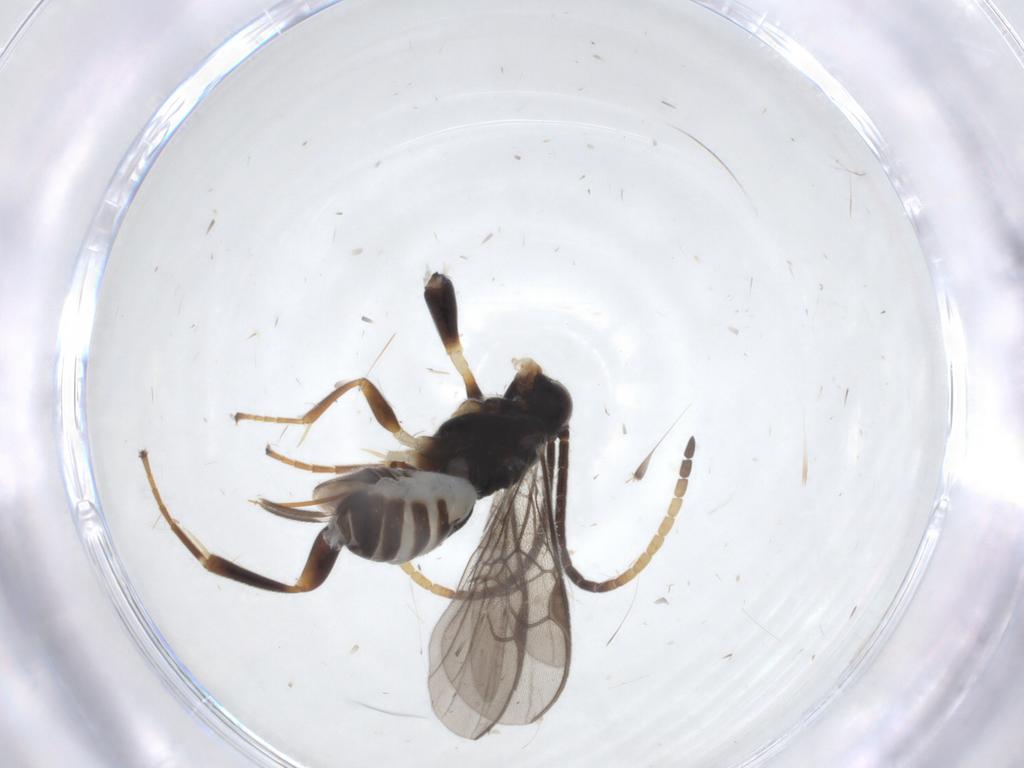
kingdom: Animalia
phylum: Arthropoda
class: Insecta
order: Hymenoptera
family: Braconidae
